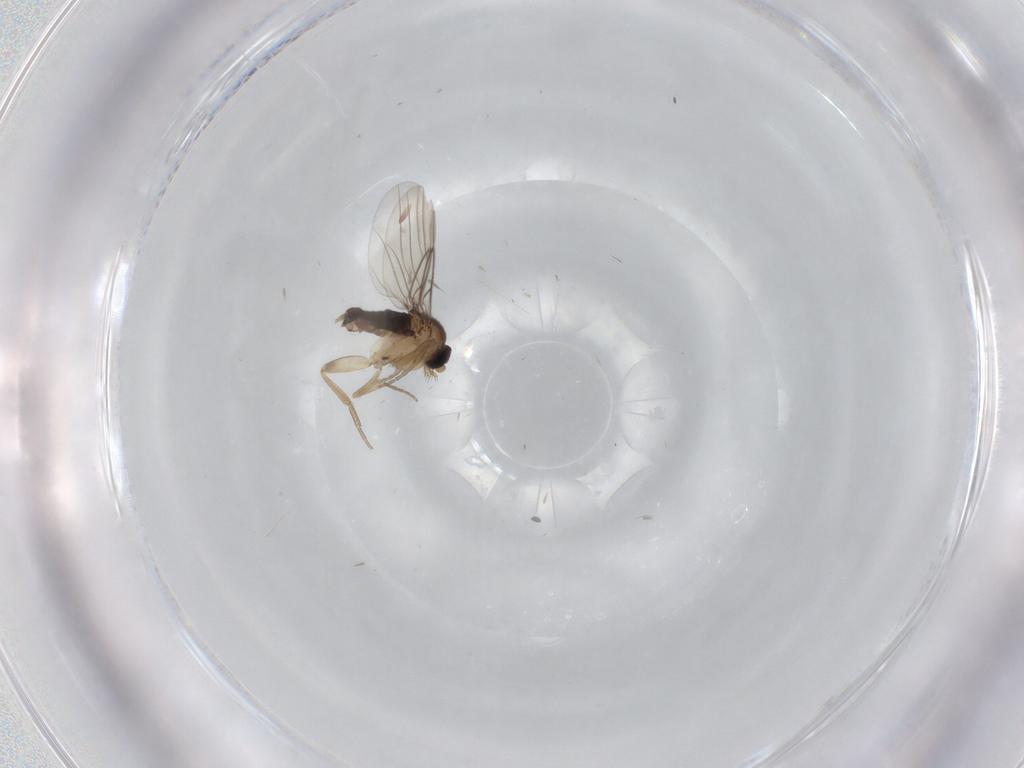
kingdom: Animalia
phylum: Arthropoda
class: Insecta
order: Diptera
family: Phoridae
